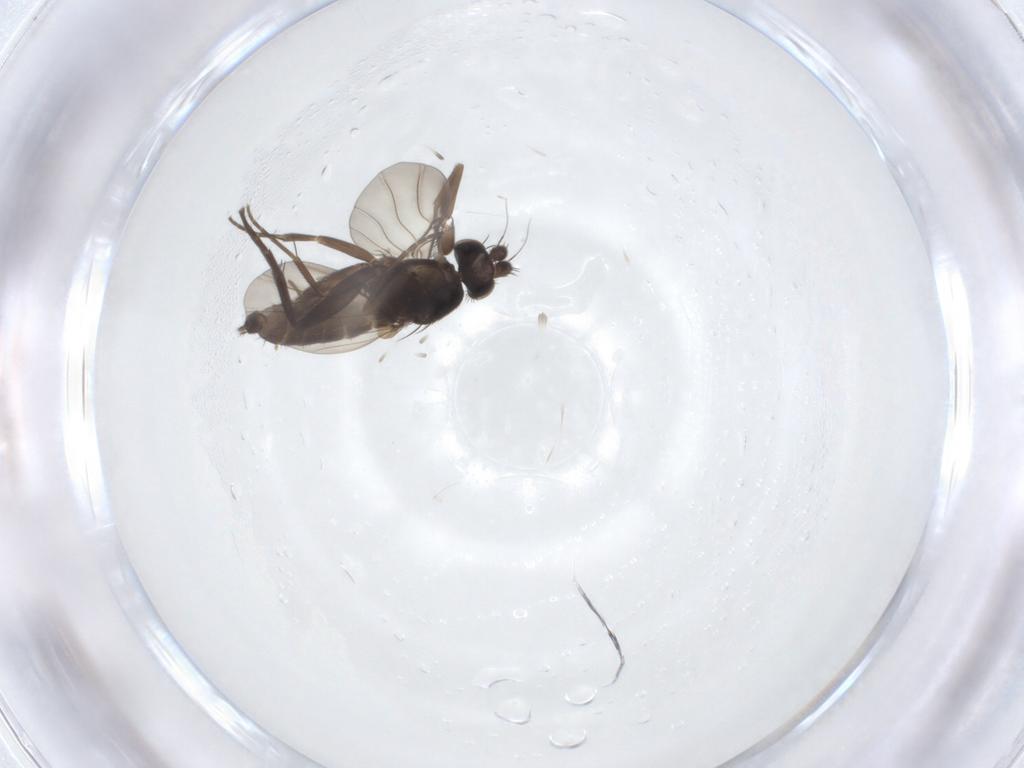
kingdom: Animalia
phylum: Arthropoda
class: Insecta
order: Diptera
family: Phoridae
